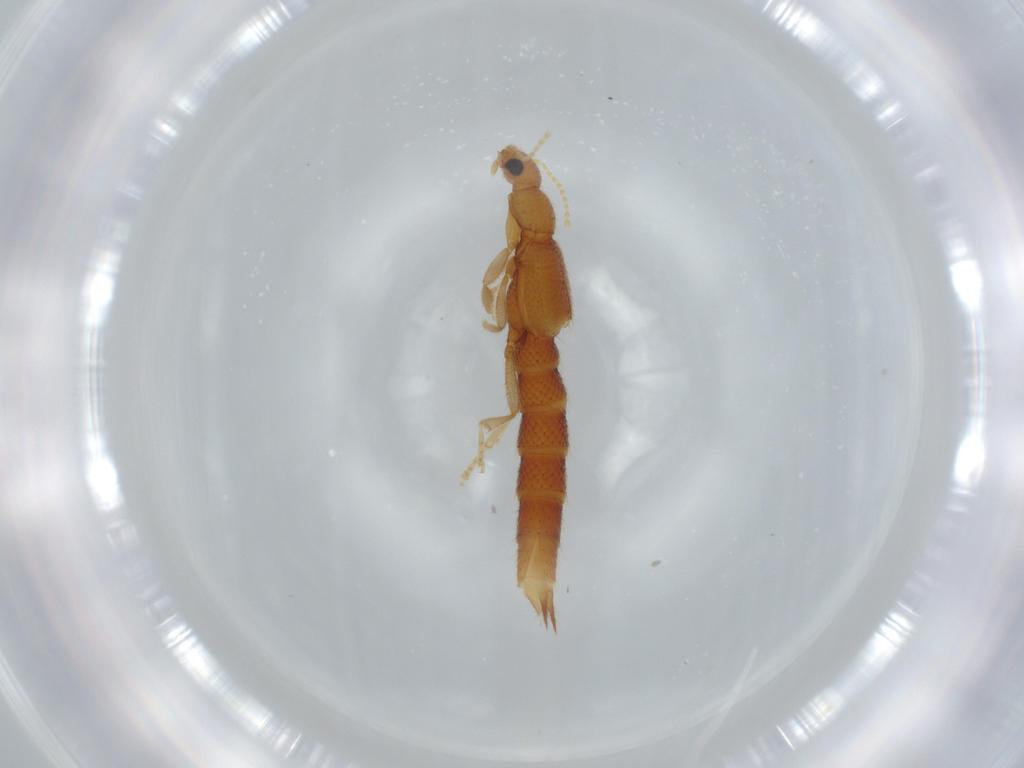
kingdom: Animalia
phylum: Arthropoda
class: Insecta
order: Coleoptera
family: Staphylinidae
